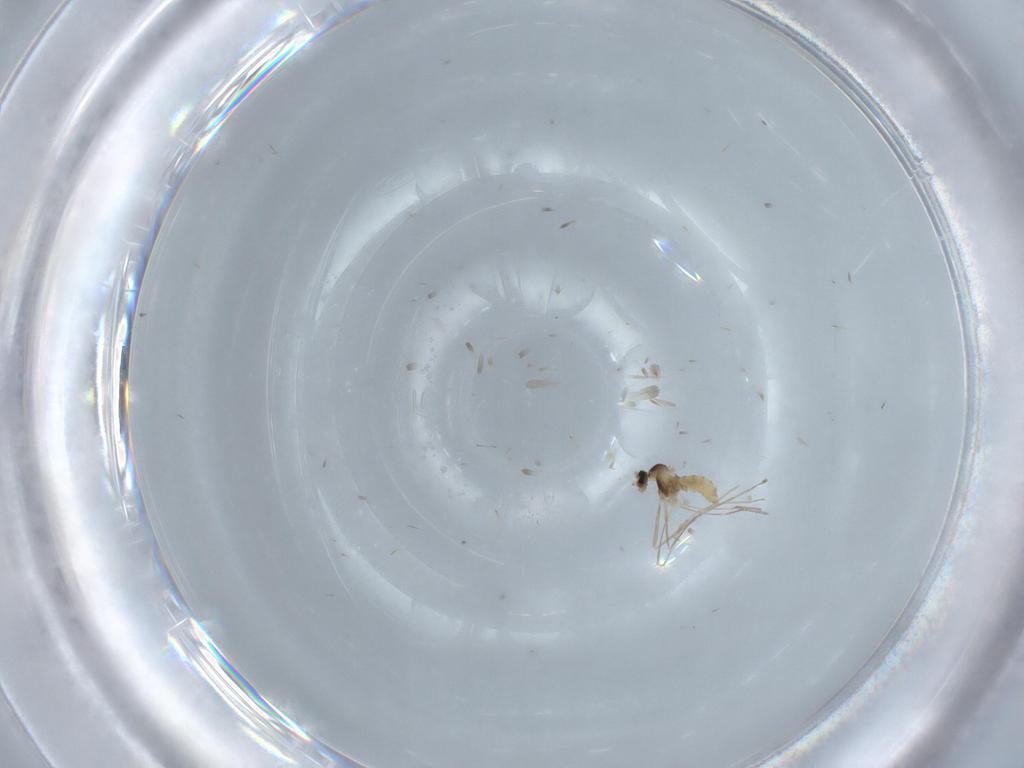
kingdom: Animalia
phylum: Arthropoda
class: Insecta
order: Diptera
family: Cecidomyiidae
